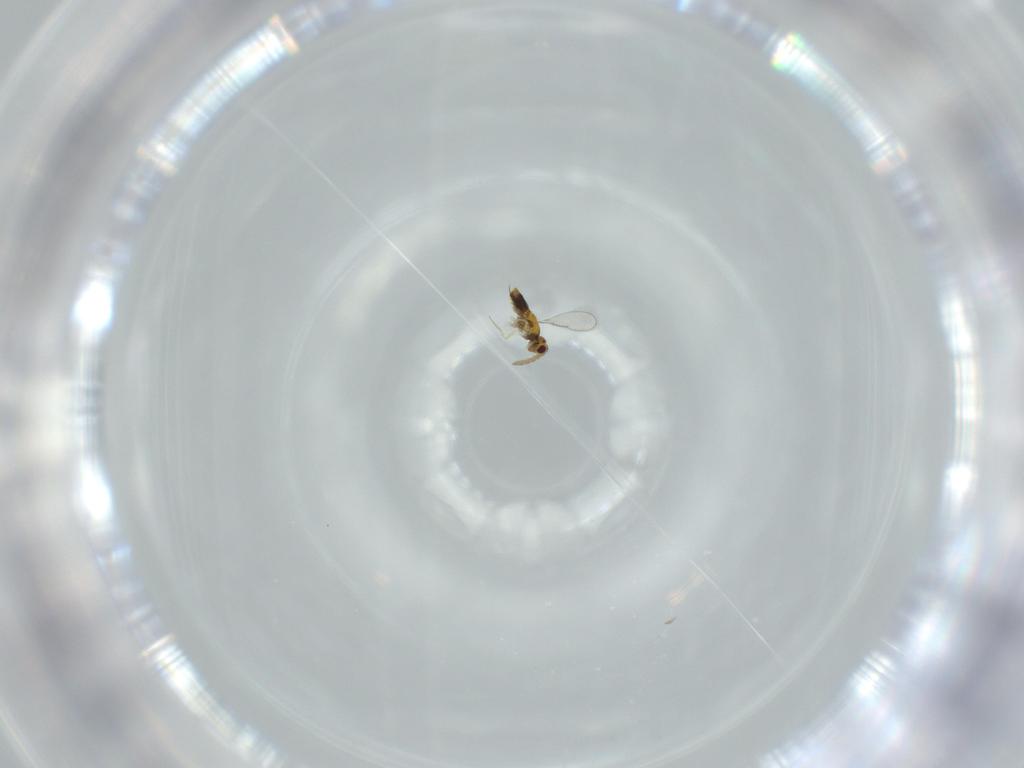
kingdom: Animalia
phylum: Arthropoda
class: Insecta
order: Hymenoptera
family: Aphelinidae
